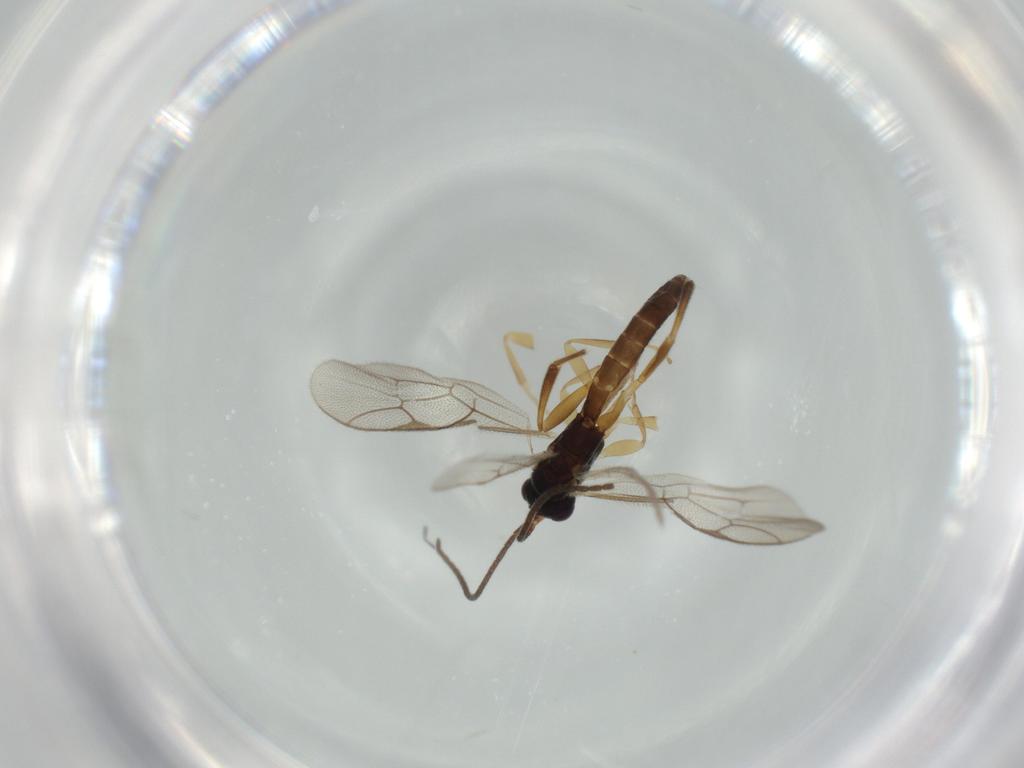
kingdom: Animalia
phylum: Arthropoda
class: Insecta
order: Hymenoptera
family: Ichneumonidae
